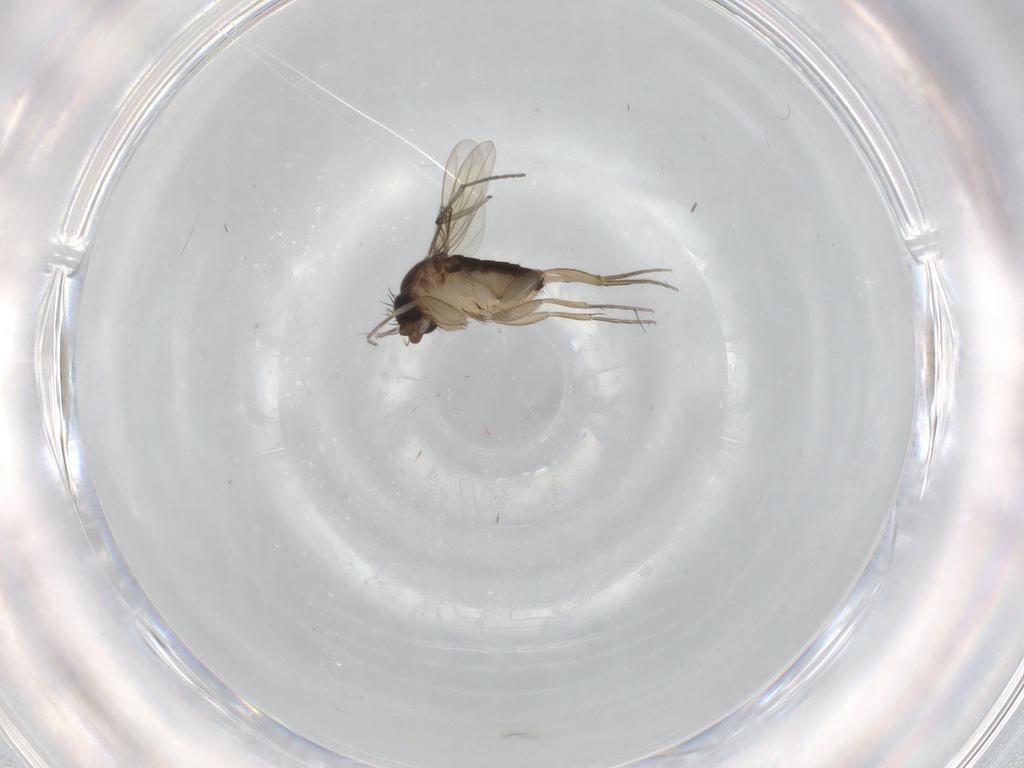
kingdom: Animalia
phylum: Arthropoda
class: Insecta
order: Diptera
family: Phoridae
